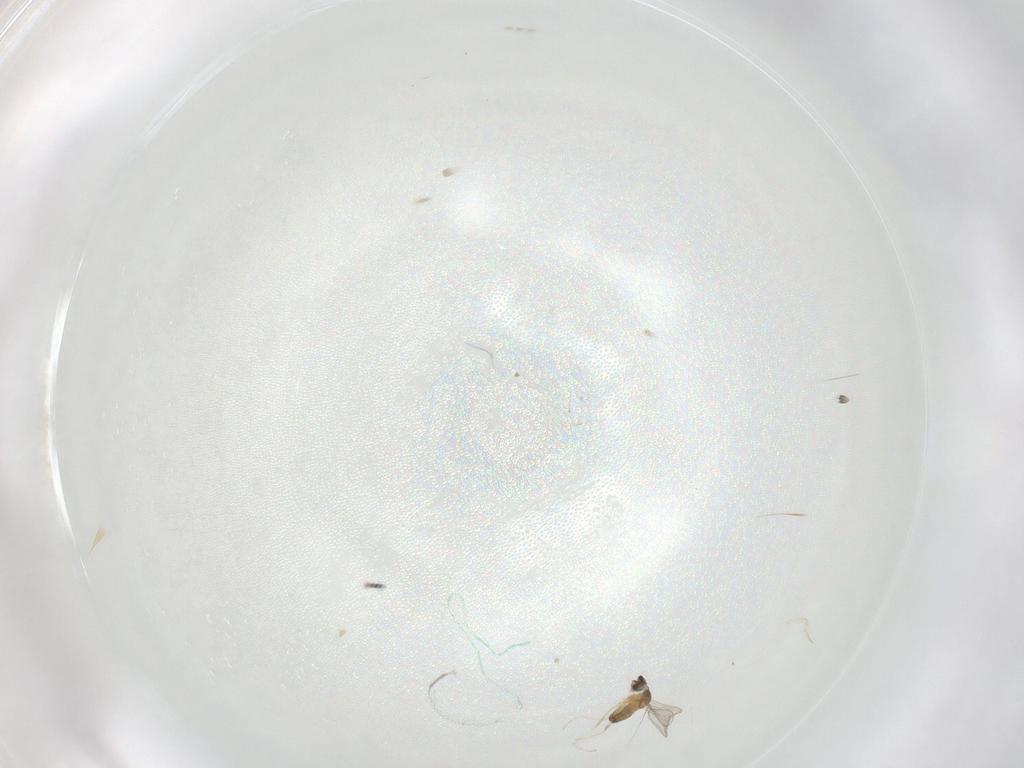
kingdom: Animalia
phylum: Arthropoda
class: Insecta
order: Diptera
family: Cecidomyiidae
